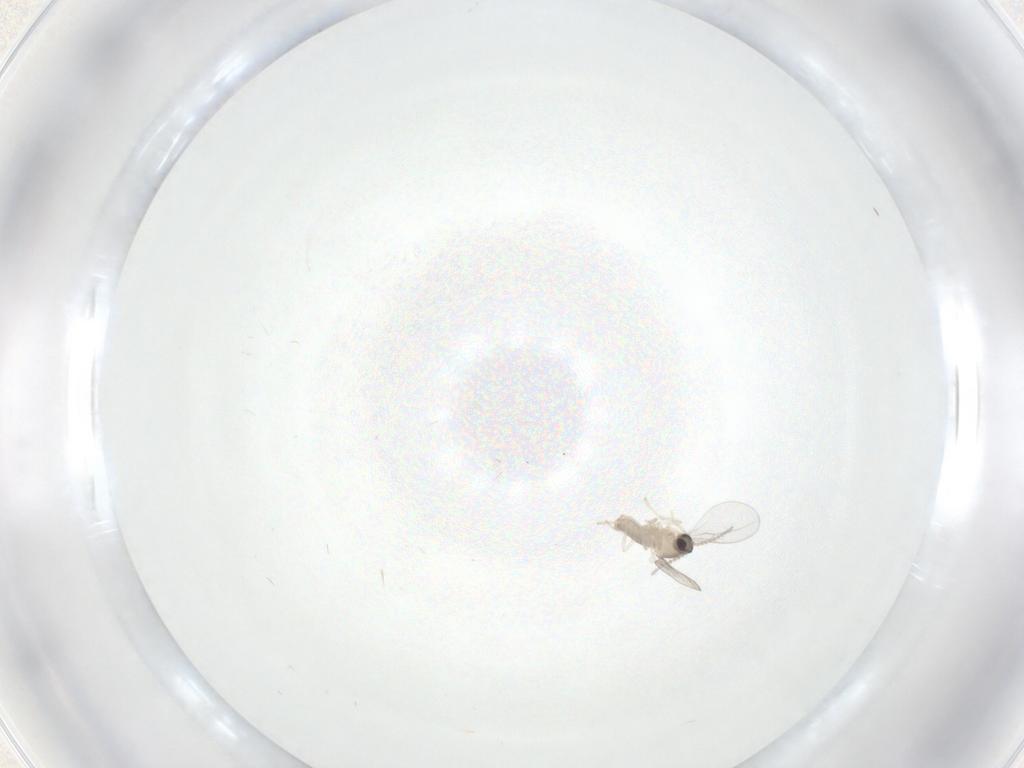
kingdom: Animalia
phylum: Arthropoda
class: Insecta
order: Diptera
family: Cecidomyiidae
